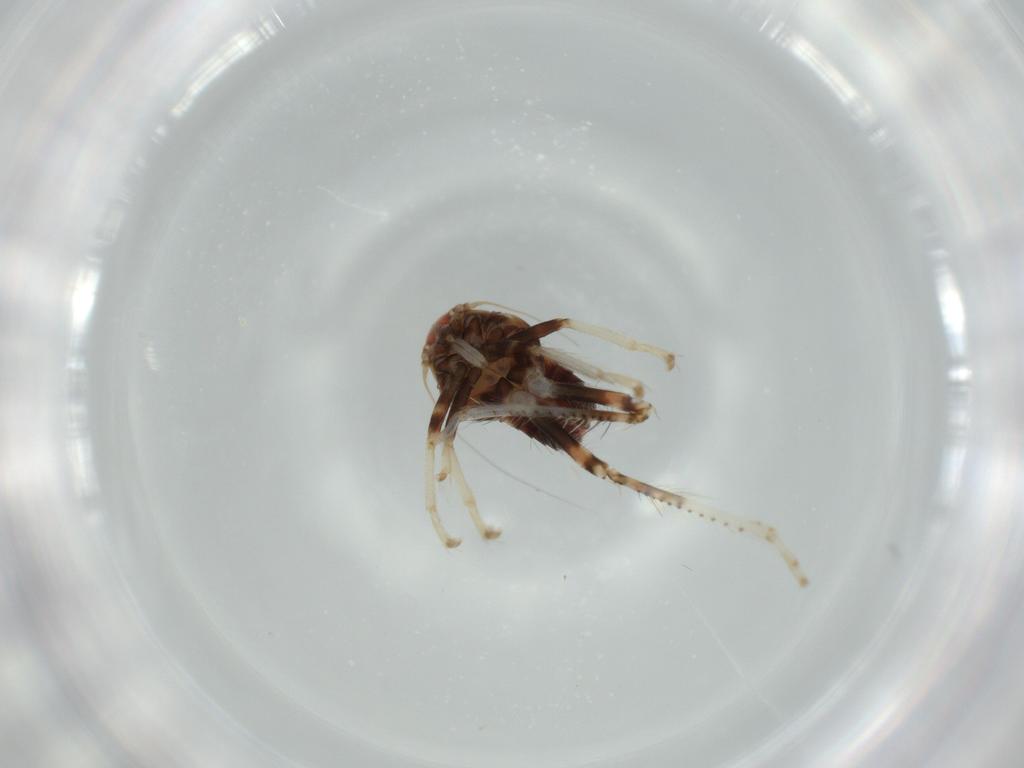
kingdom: Animalia
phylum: Arthropoda
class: Insecta
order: Hemiptera
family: Cicadellidae
